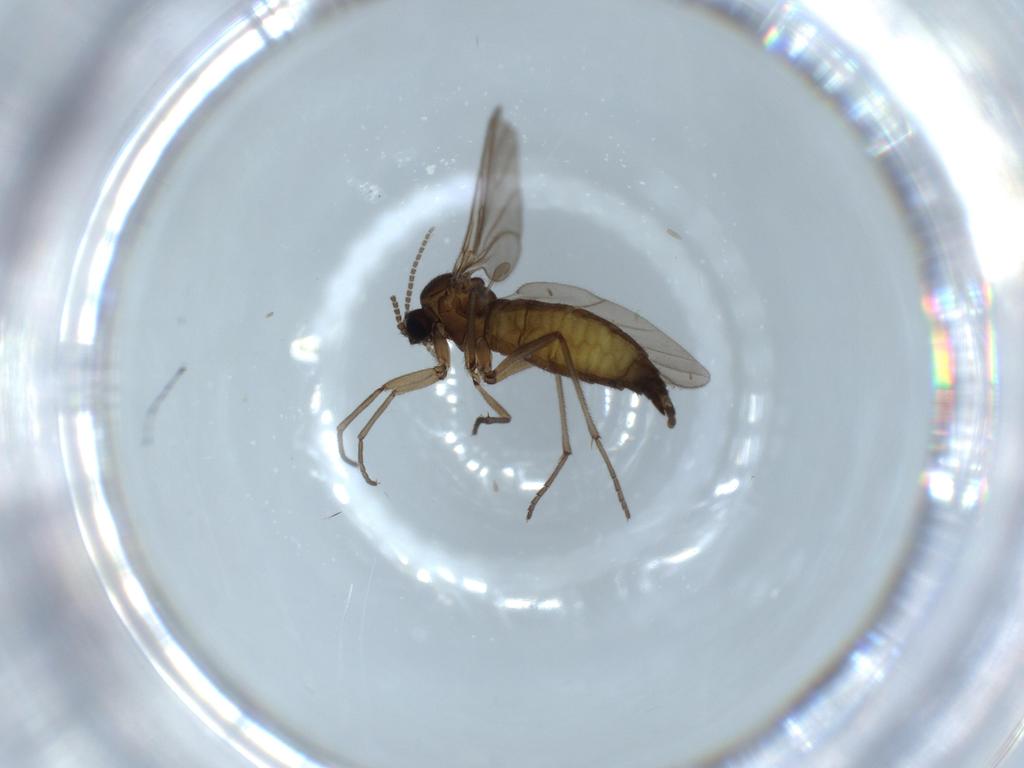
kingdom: Animalia
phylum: Arthropoda
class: Insecta
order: Diptera
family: Sciaridae
